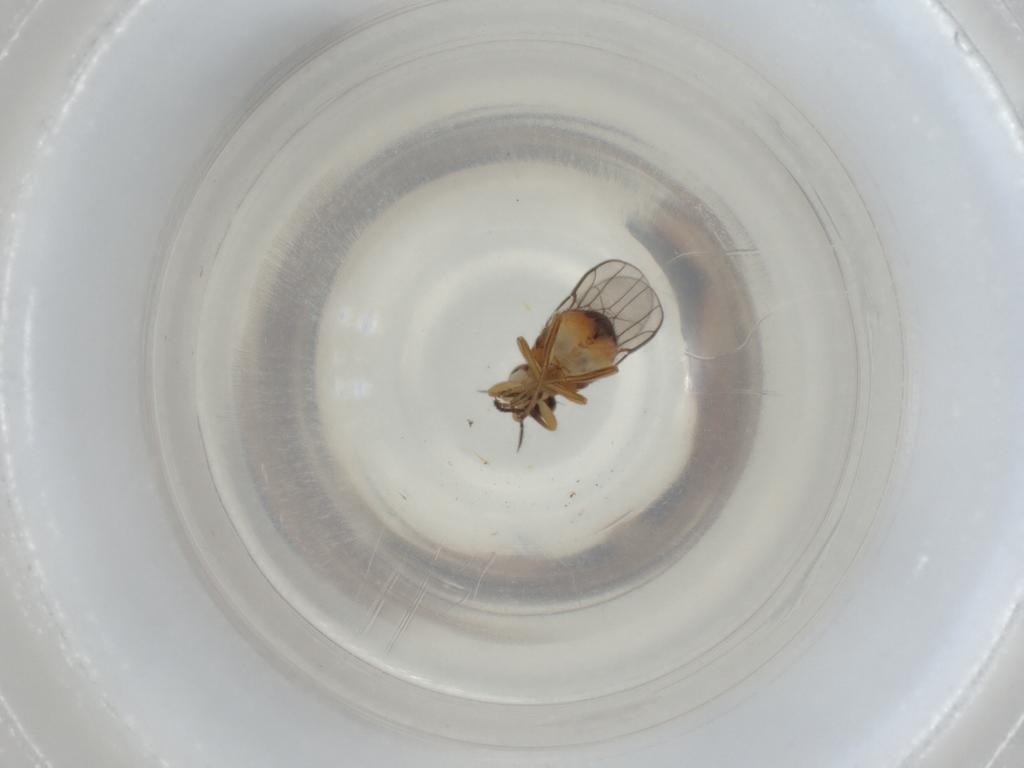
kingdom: Animalia
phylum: Arthropoda
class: Insecta
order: Diptera
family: Chloropidae
